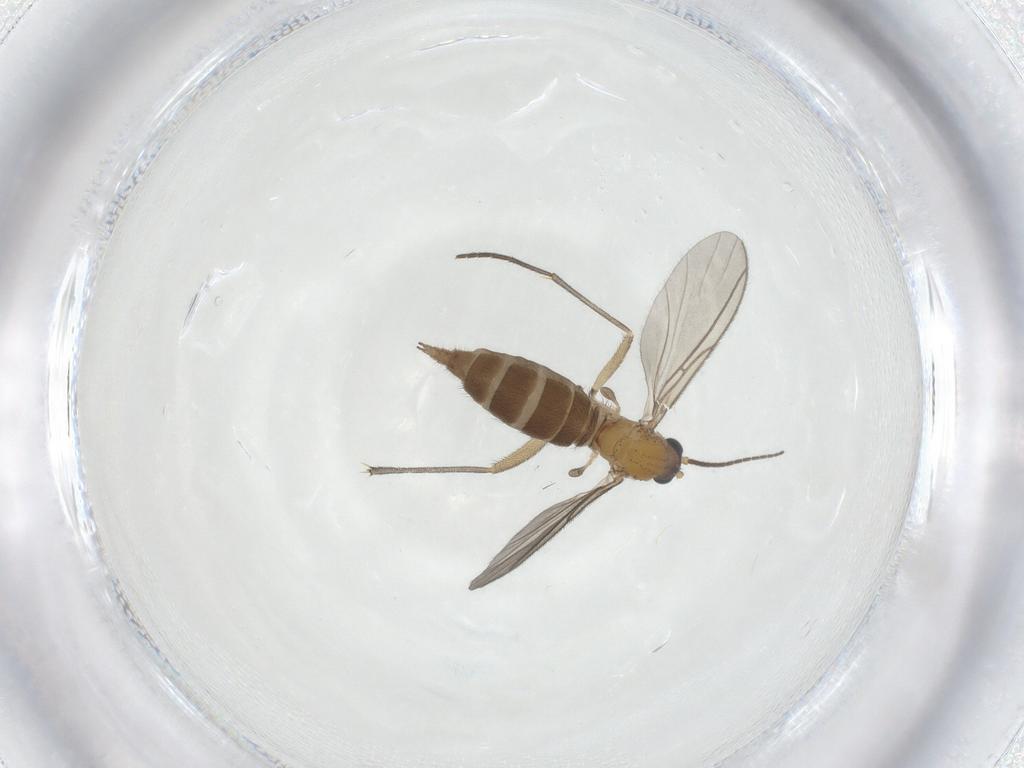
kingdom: Animalia
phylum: Arthropoda
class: Insecta
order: Diptera
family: Sciaridae
